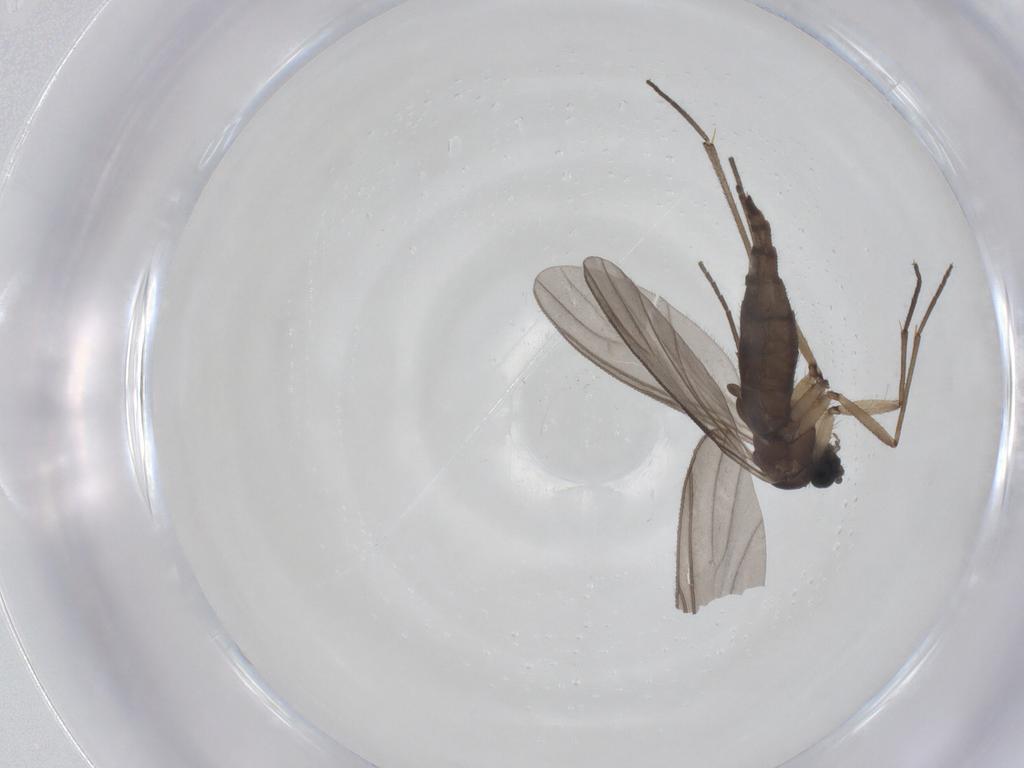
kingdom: Animalia
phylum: Arthropoda
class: Insecta
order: Diptera
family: Sciaridae
